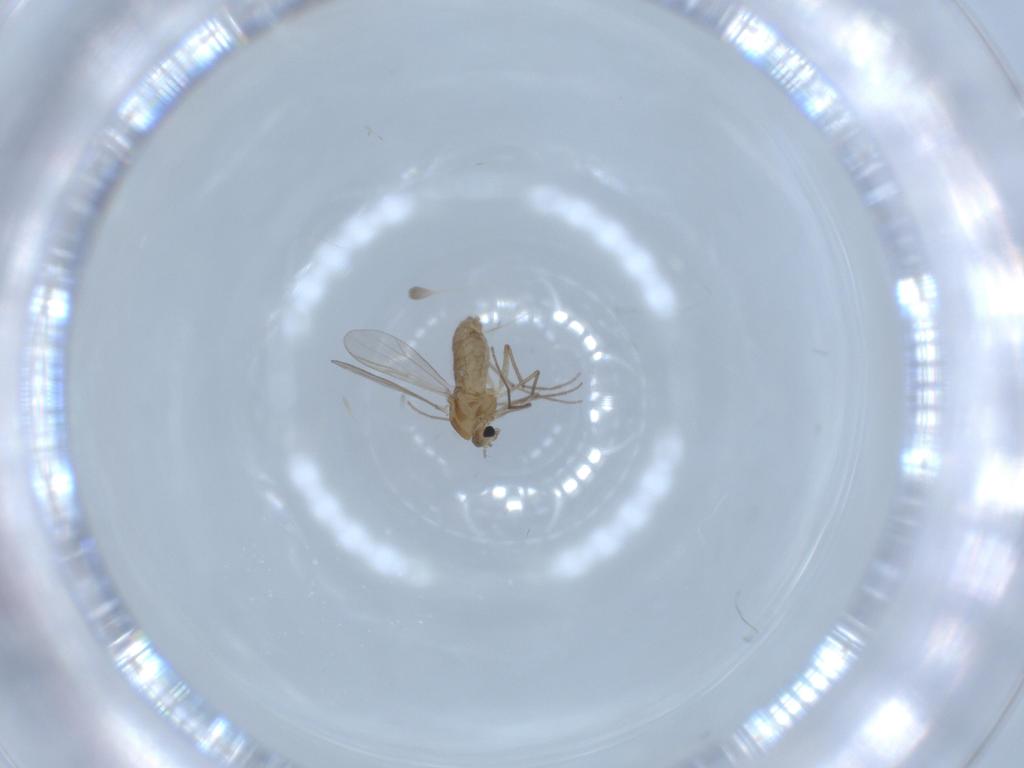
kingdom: Animalia
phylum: Arthropoda
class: Insecta
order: Diptera
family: Chironomidae
